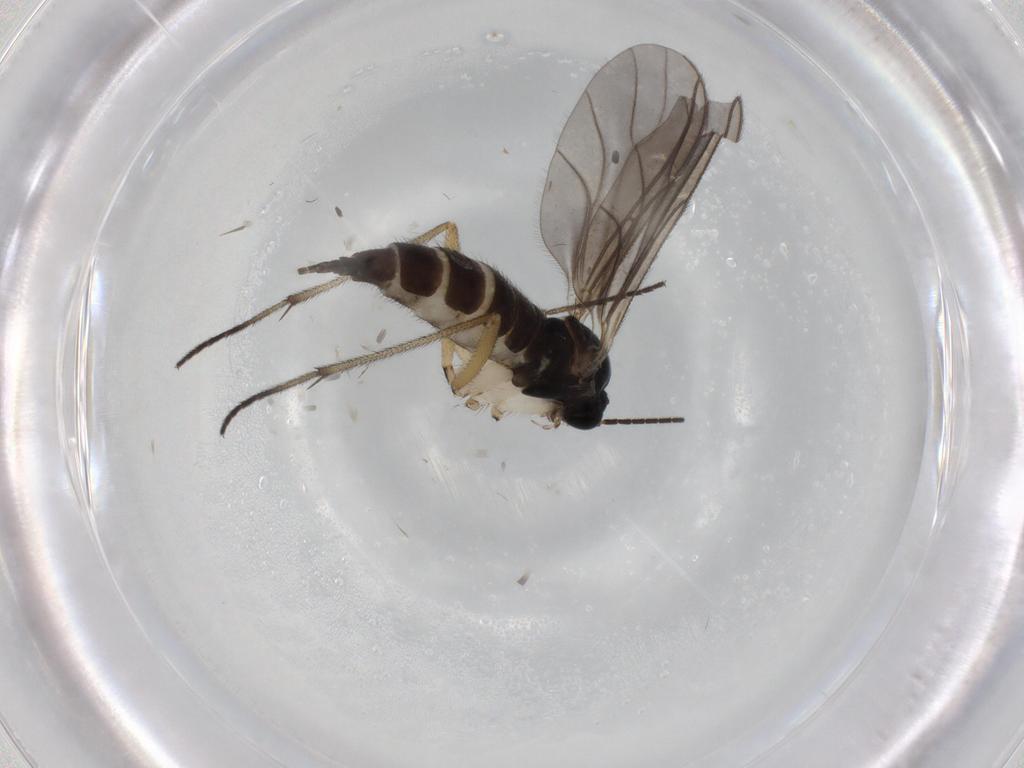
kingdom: Animalia
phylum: Arthropoda
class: Insecta
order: Diptera
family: Sciaridae
